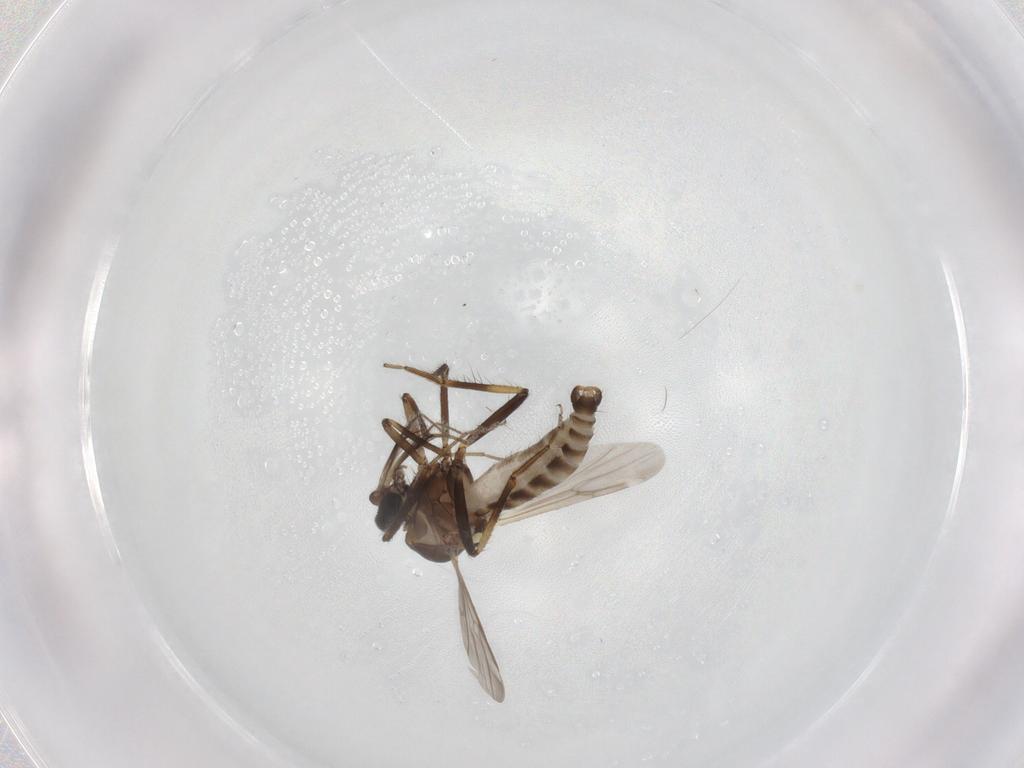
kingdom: Animalia
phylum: Arthropoda
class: Insecta
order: Diptera
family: Ceratopogonidae
